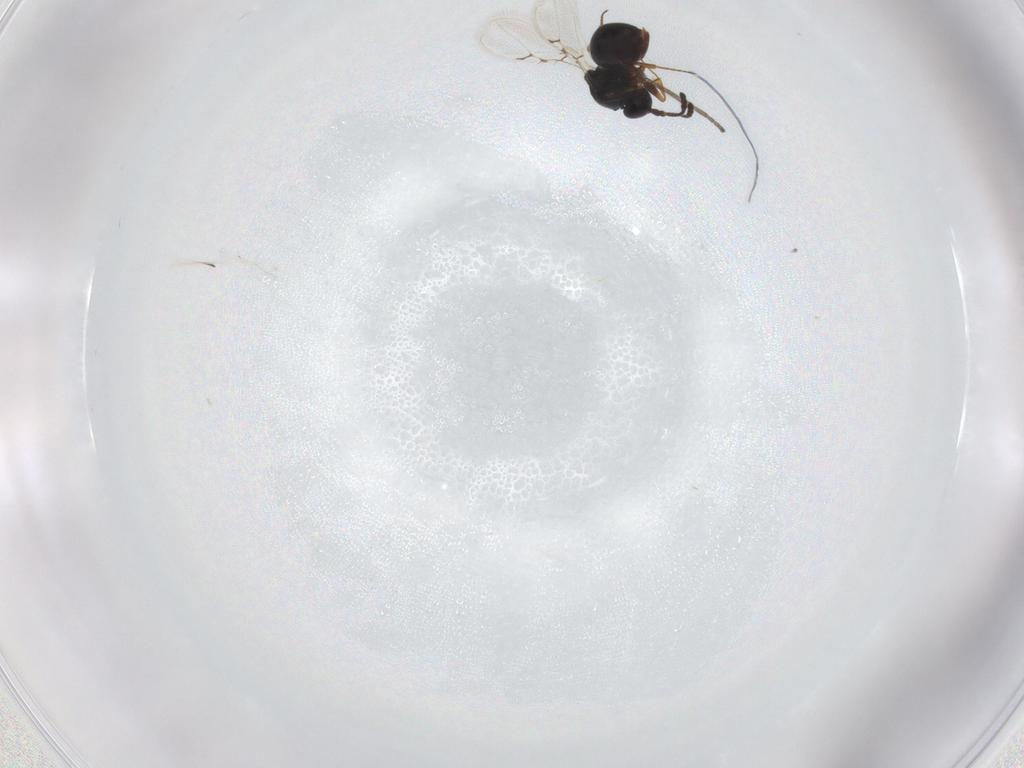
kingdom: Animalia
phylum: Arthropoda
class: Insecta
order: Hymenoptera
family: Figitidae
